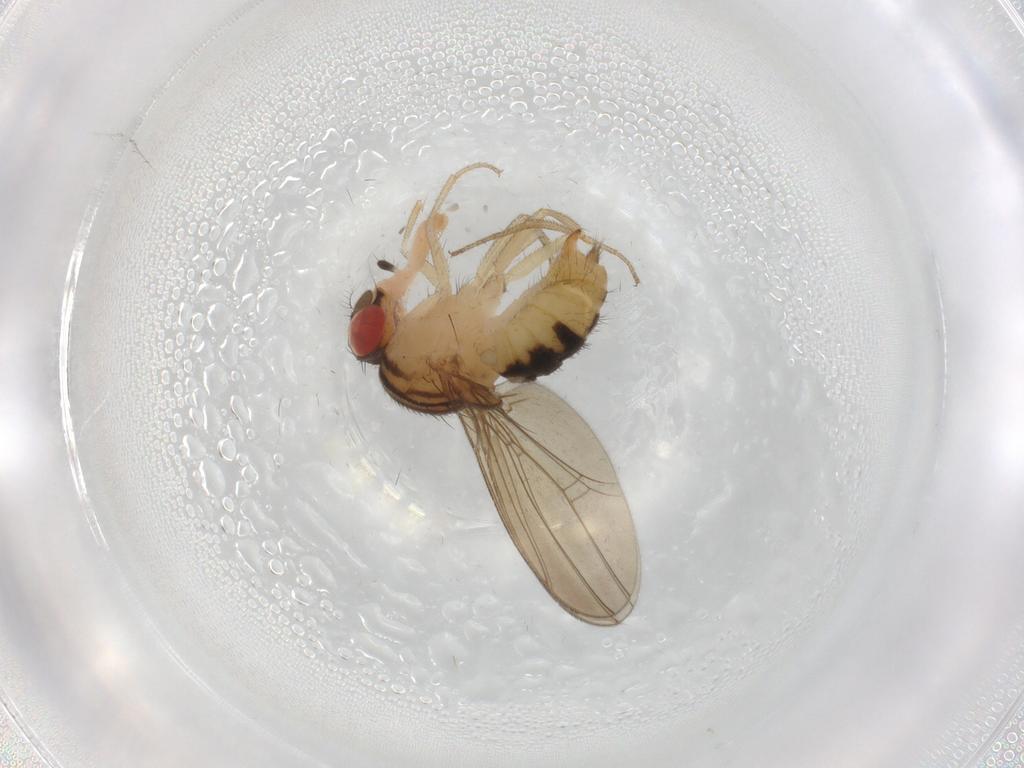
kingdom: Animalia
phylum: Arthropoda
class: Insecta
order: Diptera
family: Drosophilidae
